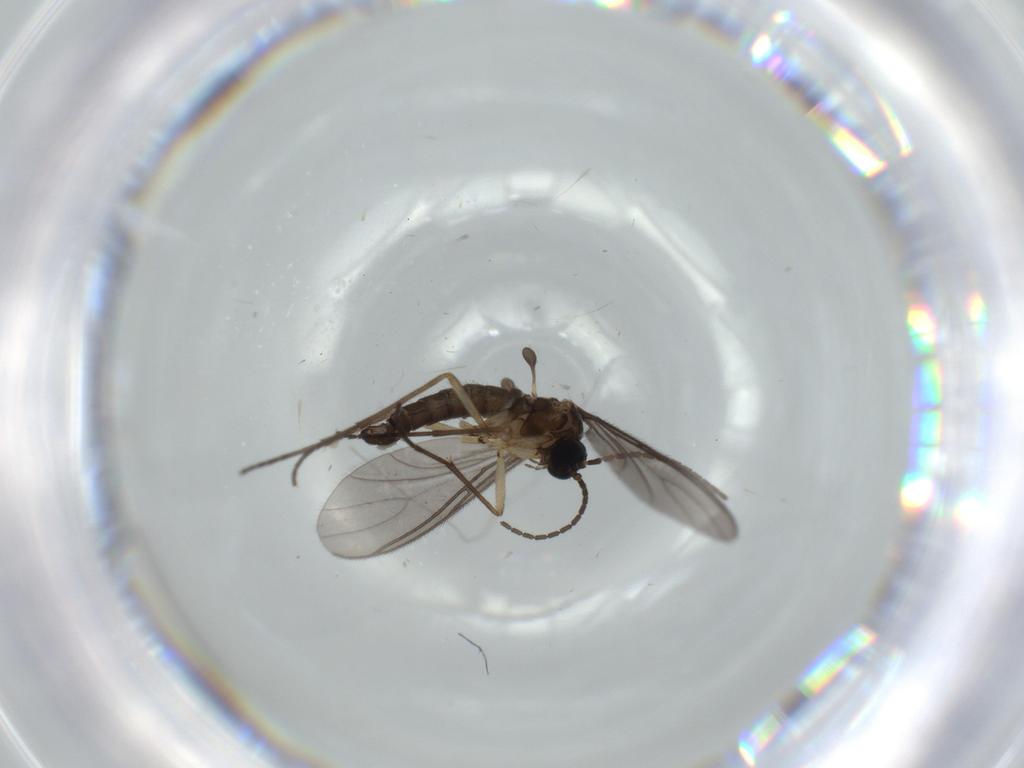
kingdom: Animalia
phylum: Arthropoda
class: Insecta
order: Diptera
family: Sciaridae
